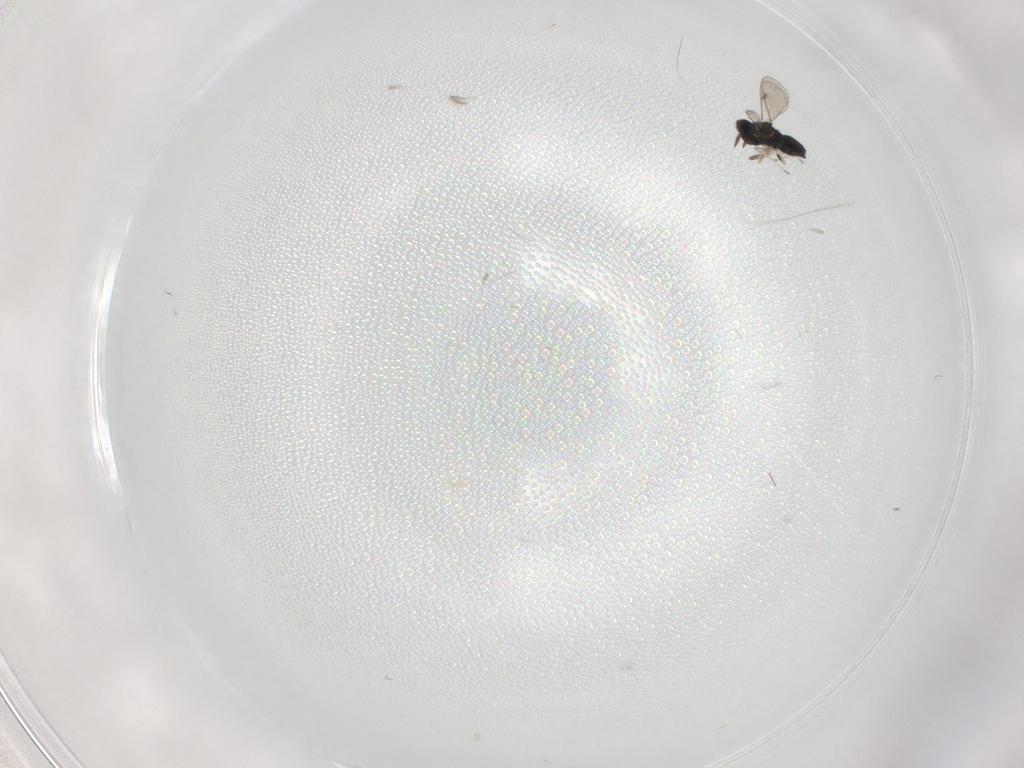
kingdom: Animalia
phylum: Arthropoda
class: Insecta
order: Hymenoptera
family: Eulophidae
